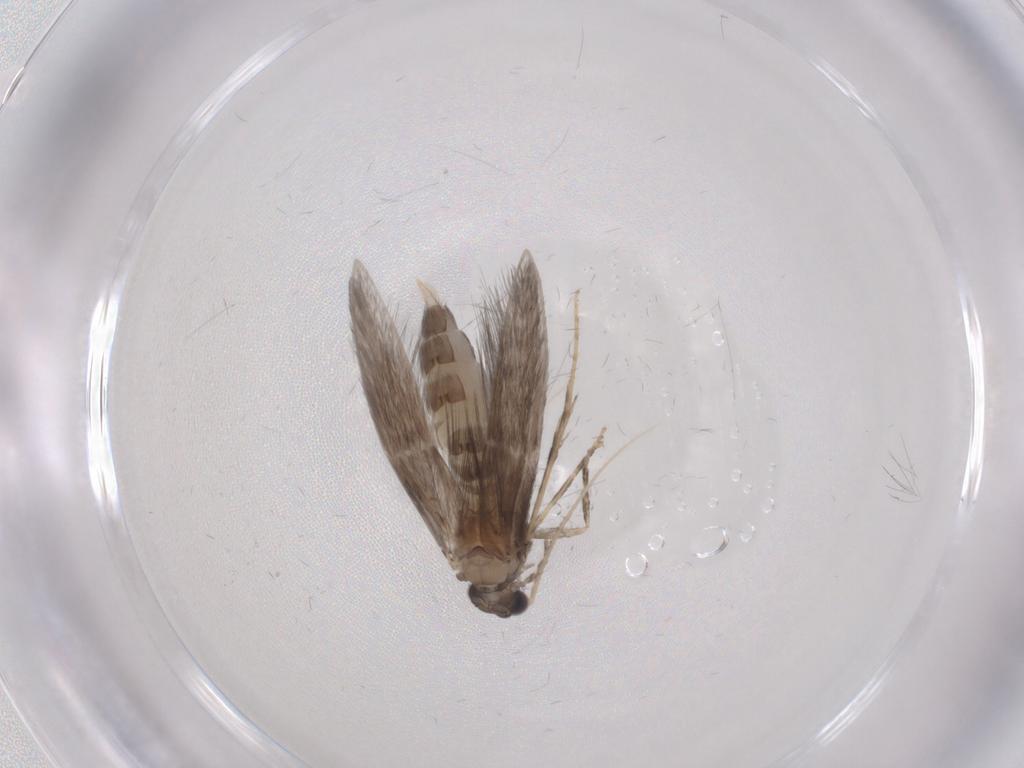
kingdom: Animalia
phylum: Arthropoda
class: Insecta
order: Trichoptera
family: Hydroptilidae
